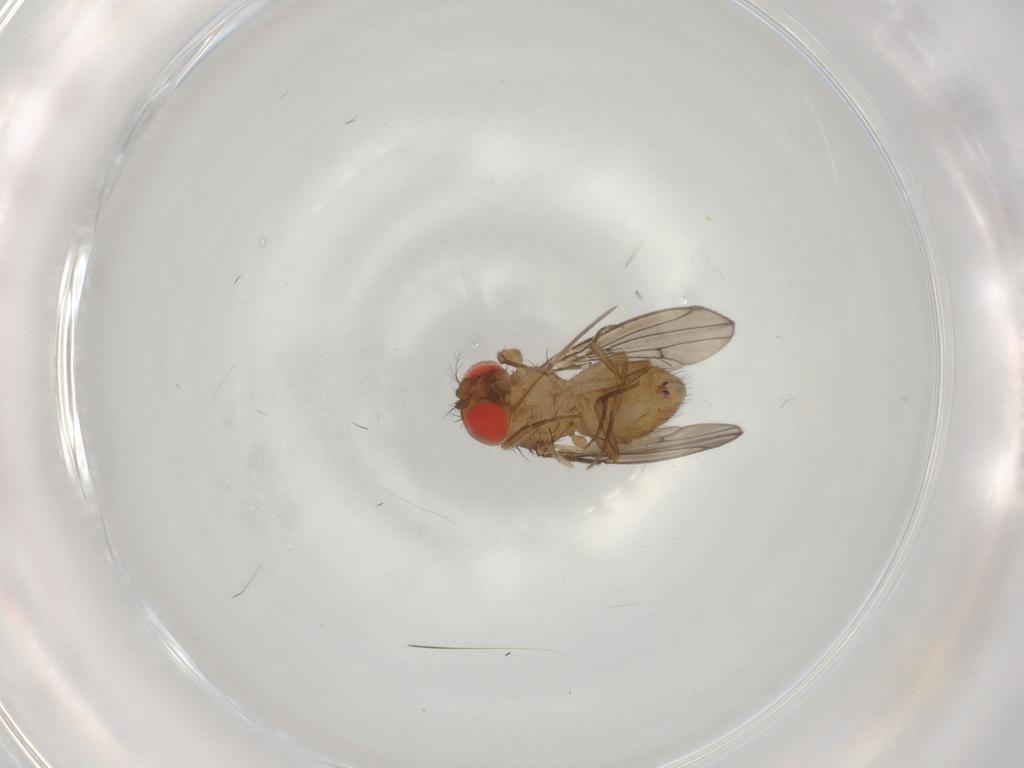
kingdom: Animalia
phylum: Arthropoda
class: Insecta
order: Diptera
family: Drosophilidae
